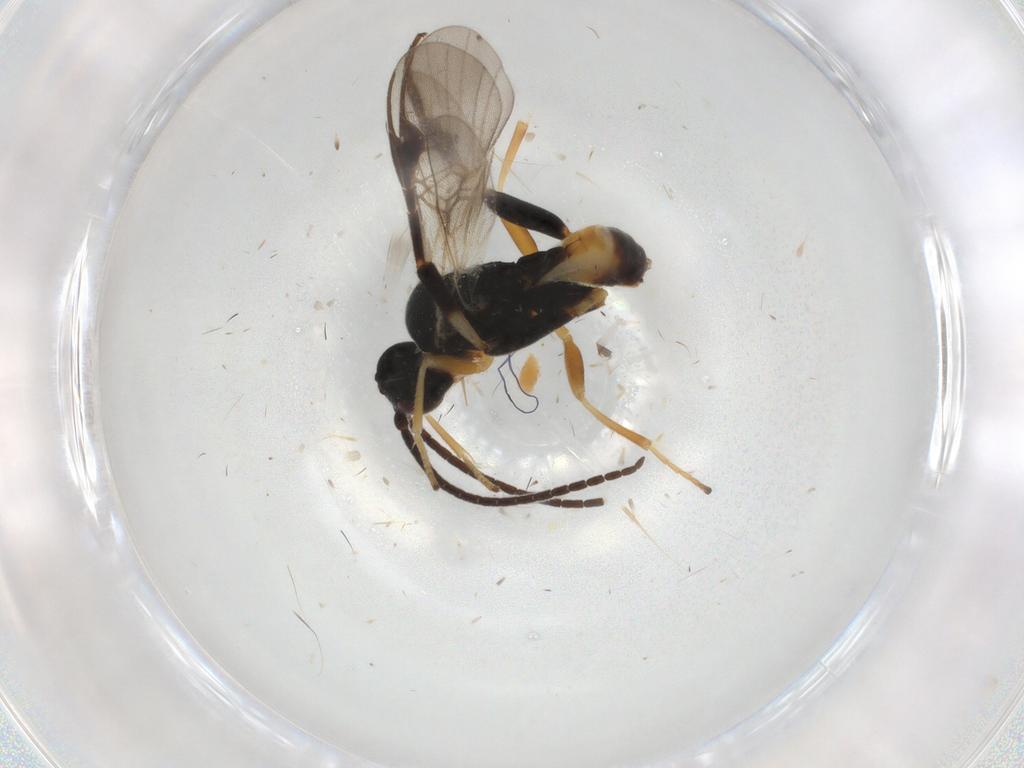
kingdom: Animalia
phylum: Arthropoda
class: Insecta
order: Hymenoptera
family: Braconidae
